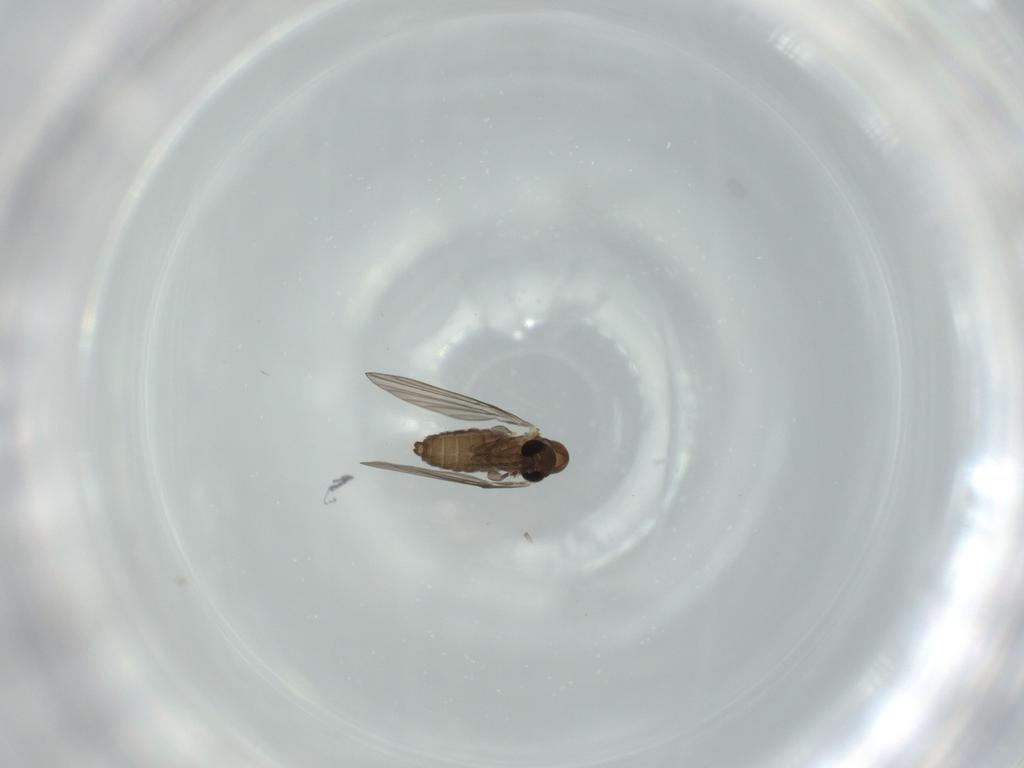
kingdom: Animalia
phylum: Arthropoda
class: Insecta
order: Diptera
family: Psychodidae
